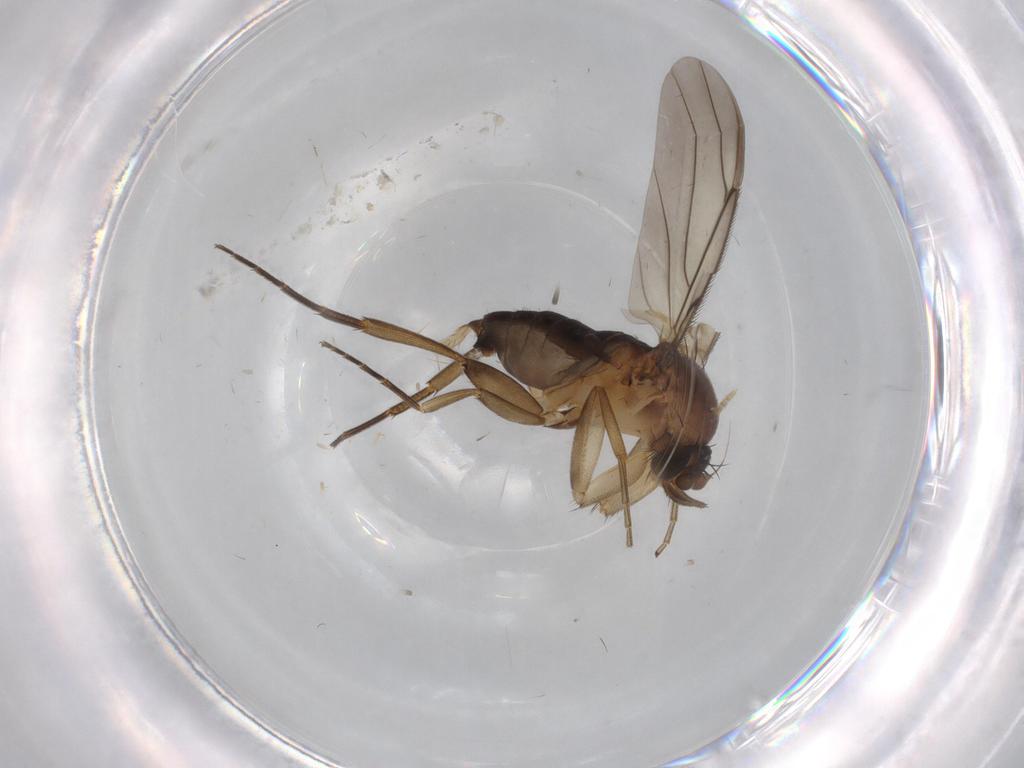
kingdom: Animalia
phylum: Arthropoda
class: Insecta
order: Diptera
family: Phoridae
